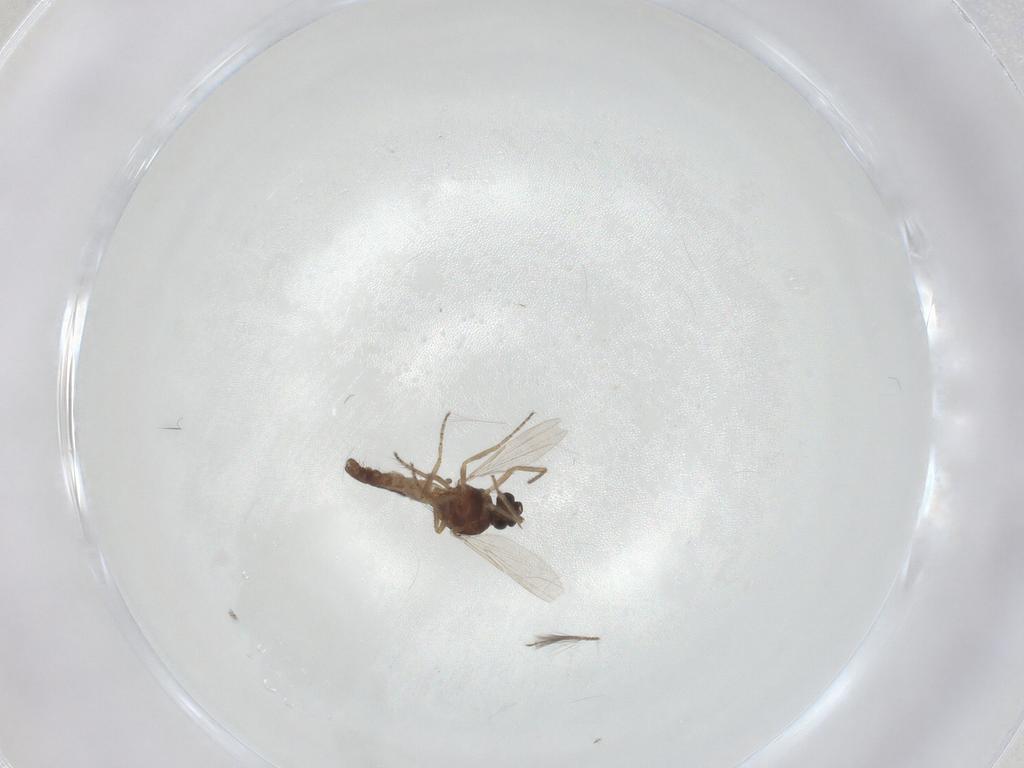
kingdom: Animalia
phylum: Arthropoda
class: Insecta
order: Diptera
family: Ceratopogonidae
